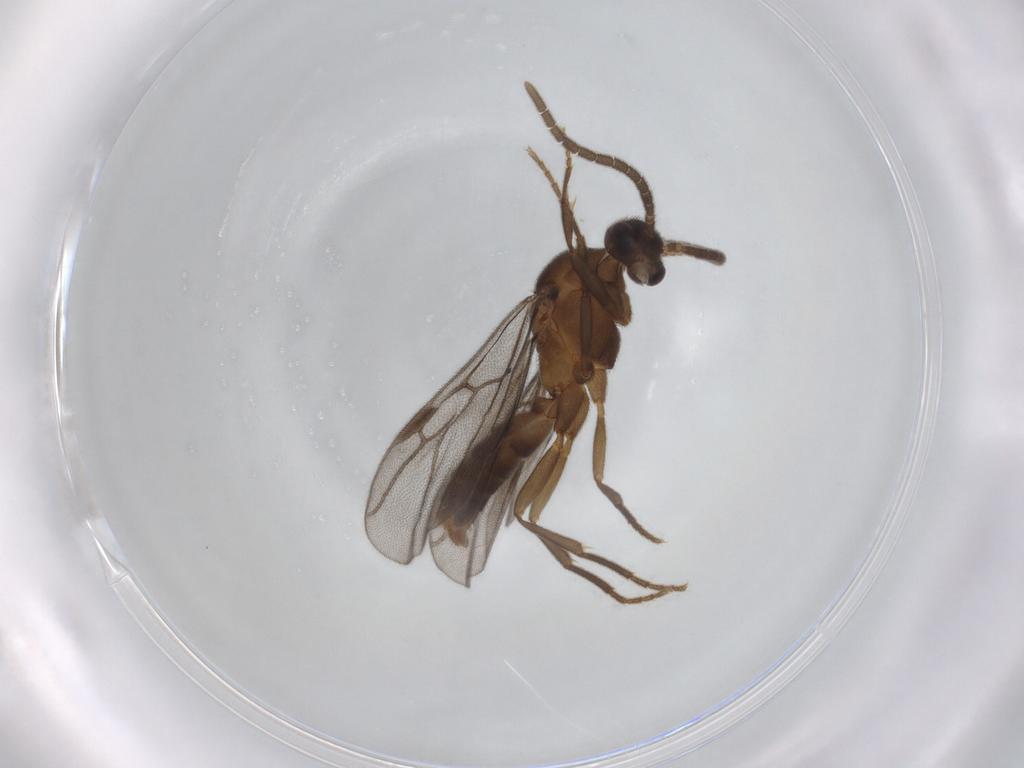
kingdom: Animalia
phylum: Arthropoda
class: Insecta
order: Hymenoptera
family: Formicidae
